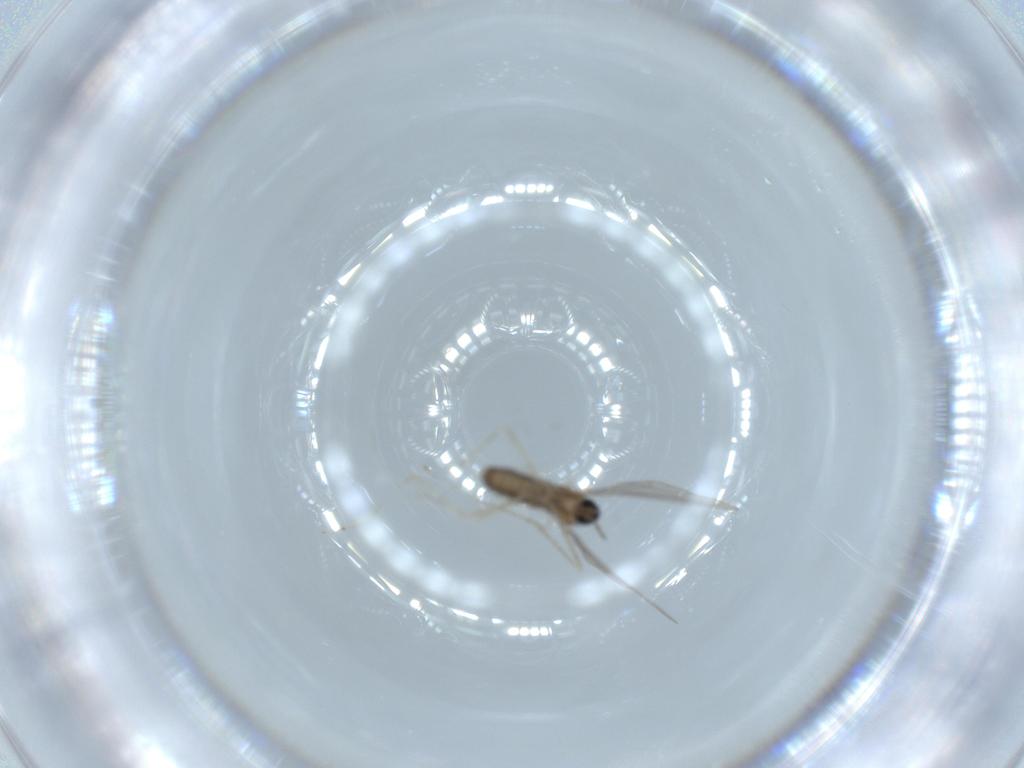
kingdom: Animalia
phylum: Arthropoda
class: Insecta
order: Diptera
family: Cecidomyiidae
